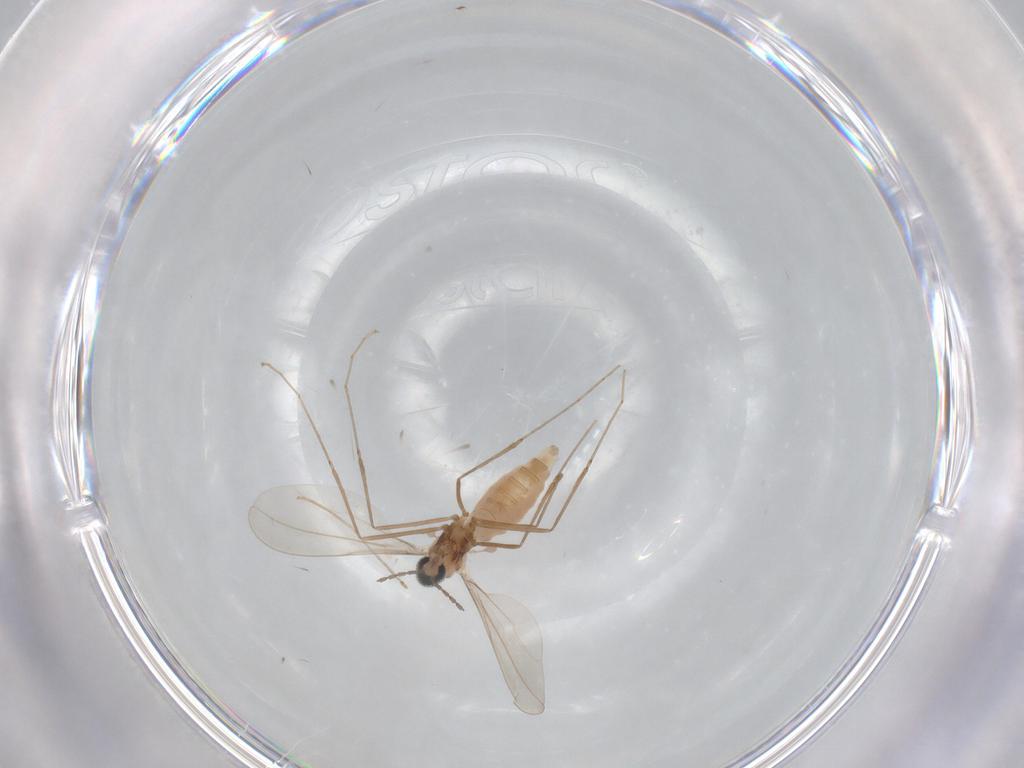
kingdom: Animalia
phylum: Arthropoda
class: Insecta
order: Diptera
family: Cecidomyiidae
